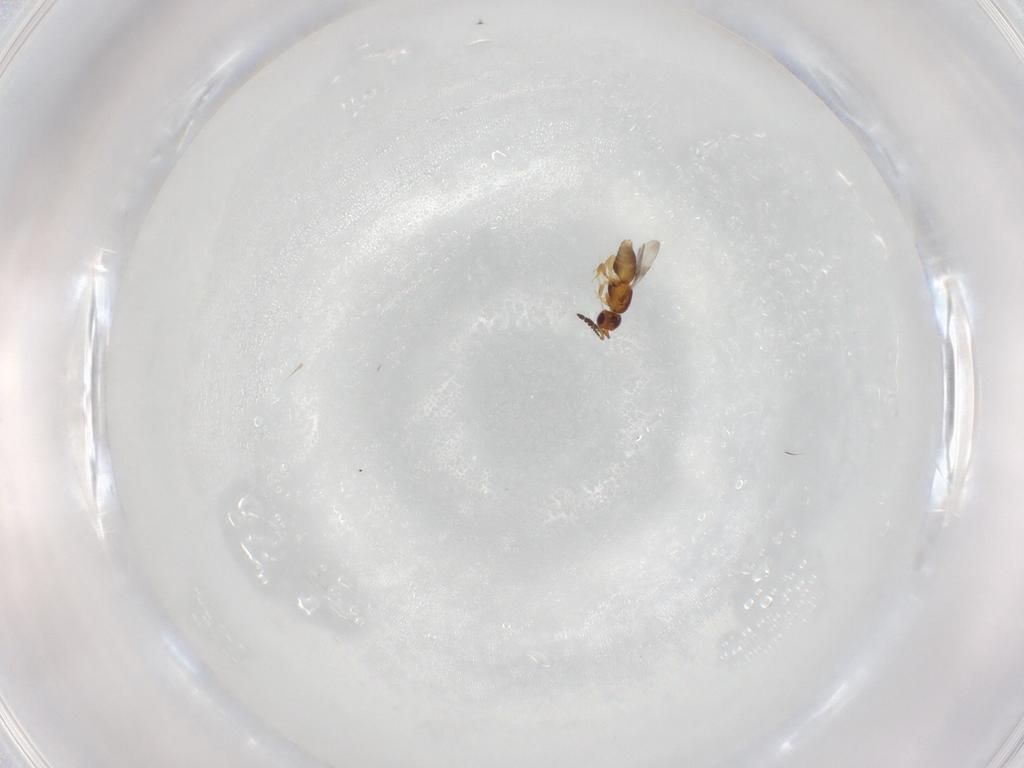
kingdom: Animalia
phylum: Arthropoda
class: Insecta
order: Hymenoptera
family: Ceraphronidae
